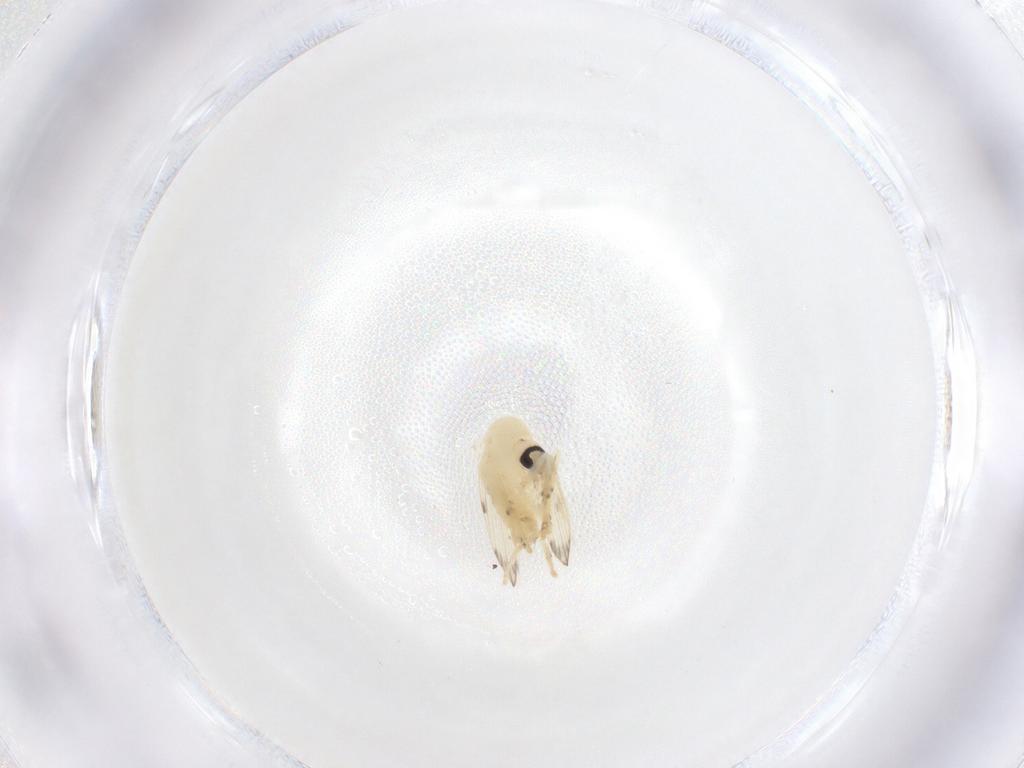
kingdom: Animalia
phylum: Arthropoda
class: Insecta
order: Diptera
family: Psychodidae
